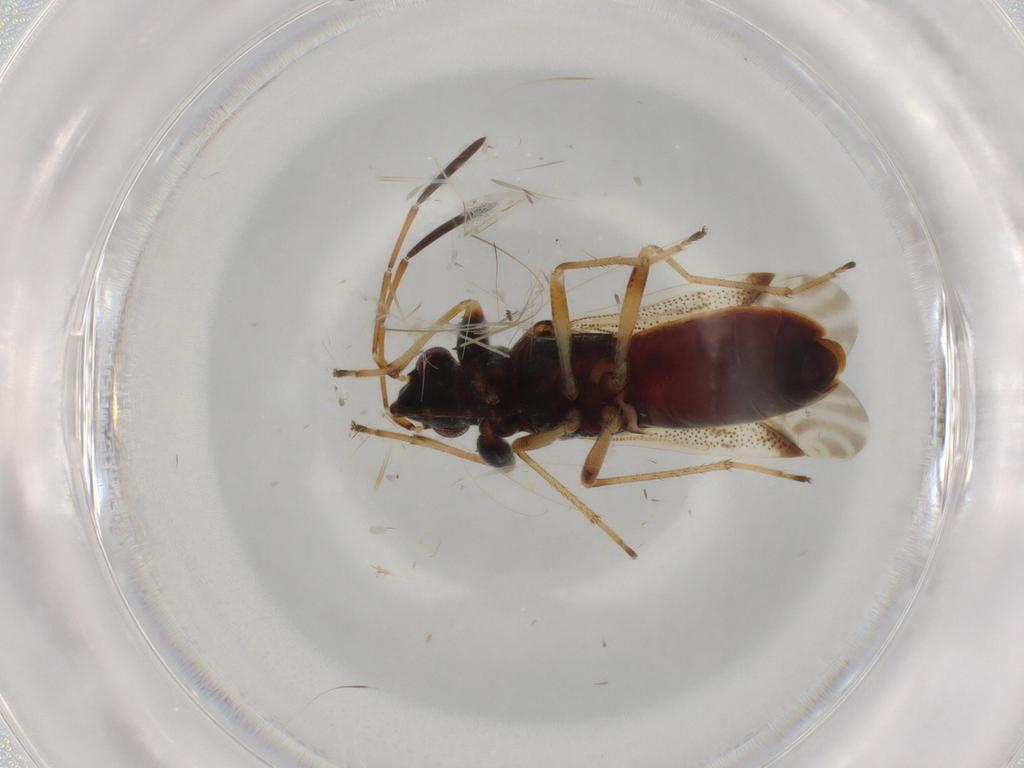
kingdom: Animalia
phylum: Arthropoda
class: Insecta
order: Hemiptera
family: Rhyparochromidae
